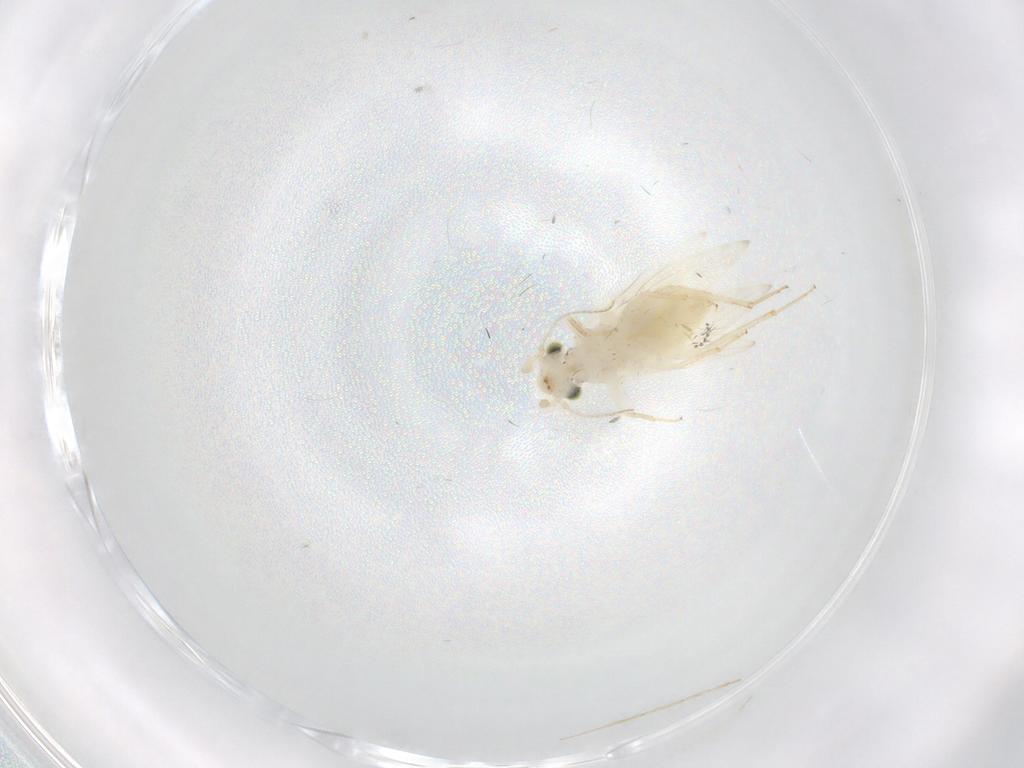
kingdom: Animalia
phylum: Arthropoda
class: Insecta
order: Psocodea
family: Lepidopsocidae
